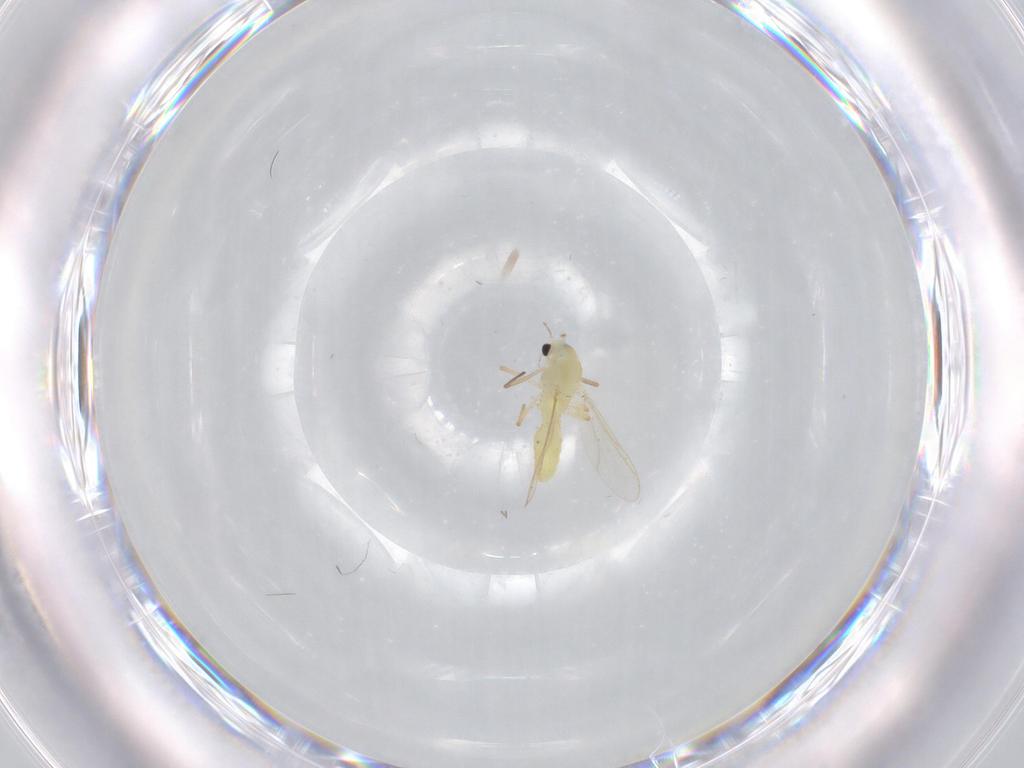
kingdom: Animalia
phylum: Arthropoda
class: Insecta
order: Diptera
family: Chironomidae
